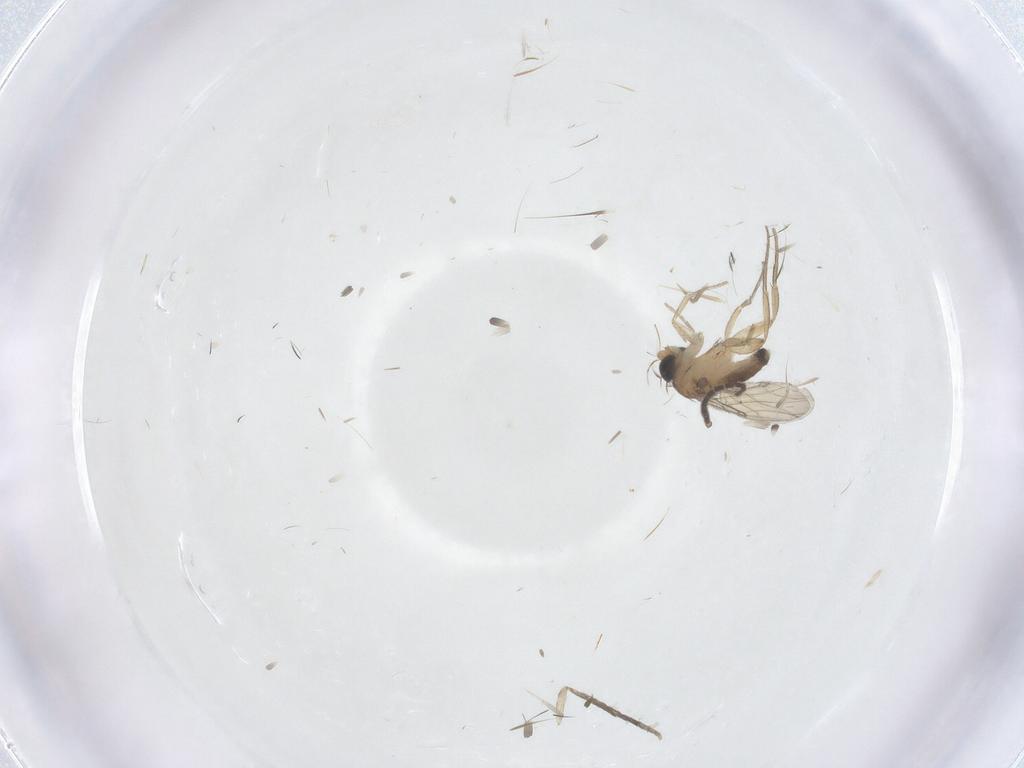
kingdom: Animalia
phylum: Arthropoda
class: Insecta
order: Diptera
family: Phoridae
